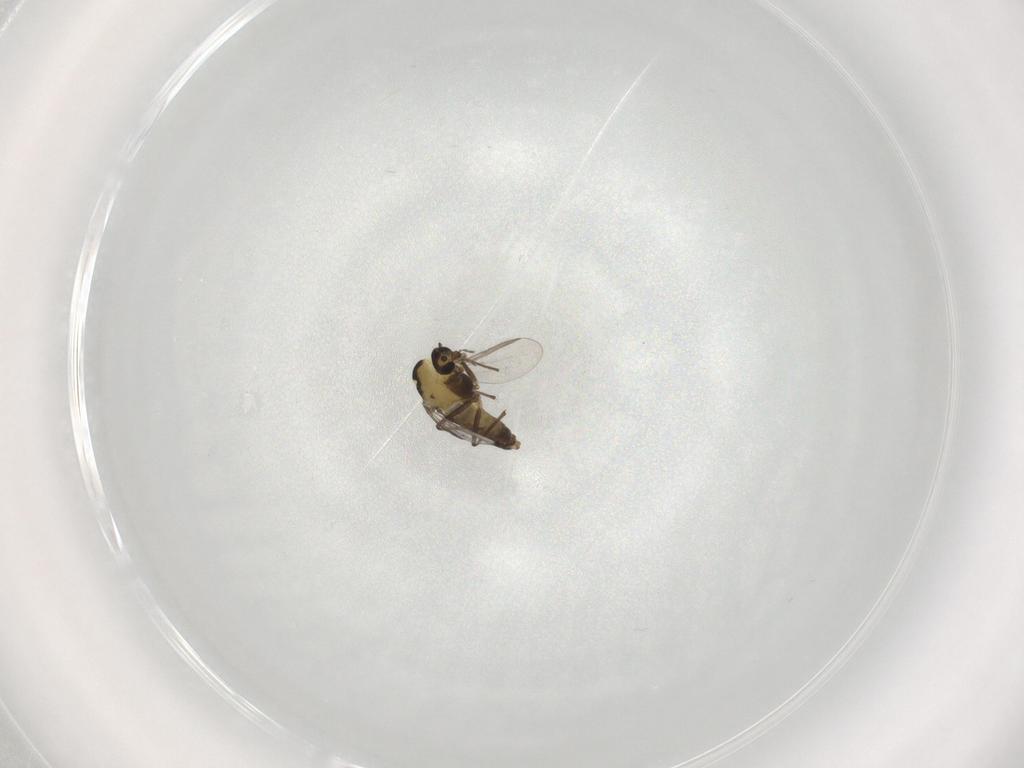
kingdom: Animalia
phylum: Arthropoda
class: Insecta
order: Diptera
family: Chironomidae
